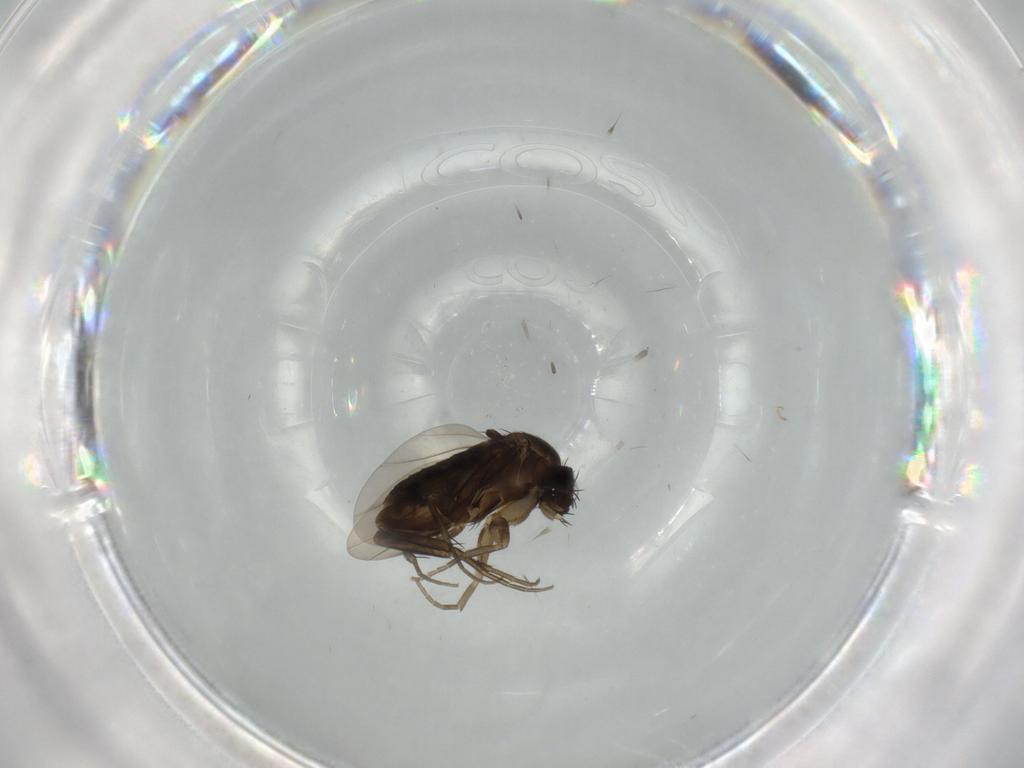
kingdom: Animalia
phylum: Arthropoda
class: Insecta
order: Diptera
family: Phoridae
